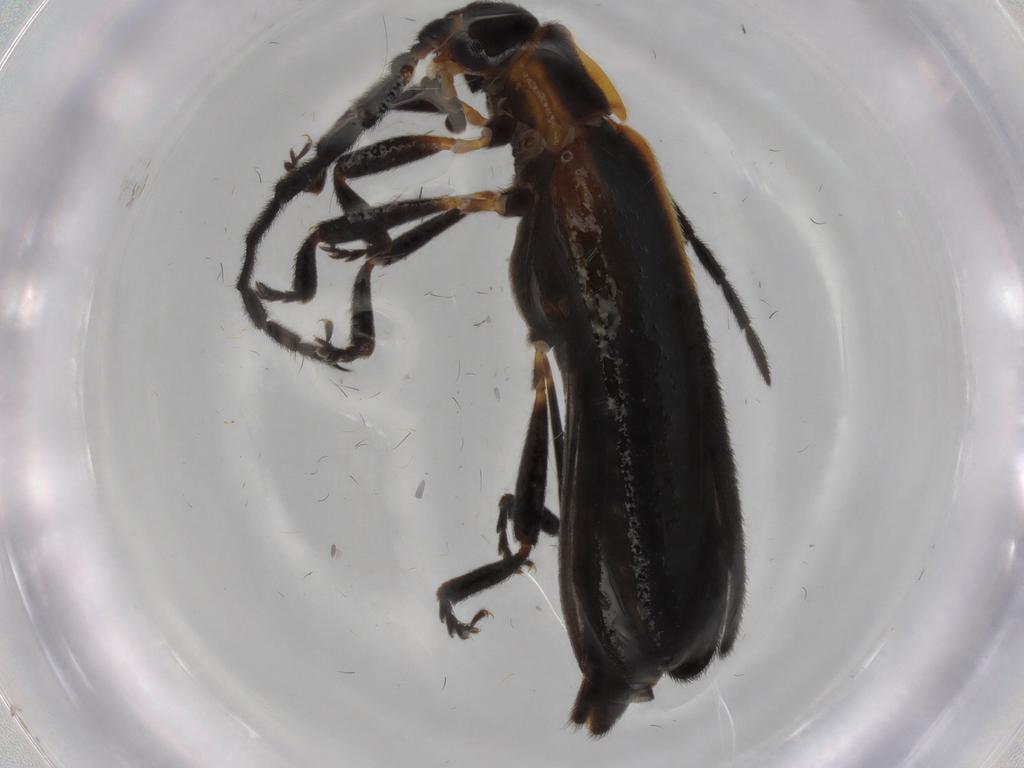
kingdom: Animalia
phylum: Arthropoda
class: Insecta
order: Coleoptera
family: Lycidae
